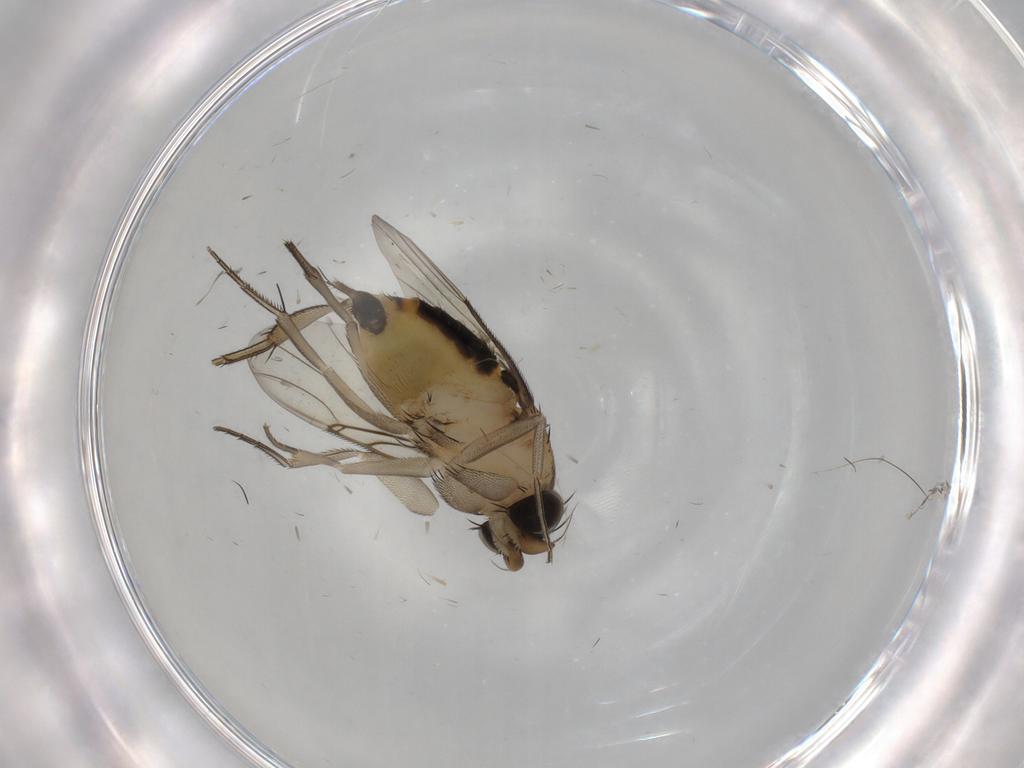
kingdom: Animalia
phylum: Arthropoda
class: Insecta
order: Diptera
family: Phoridae
